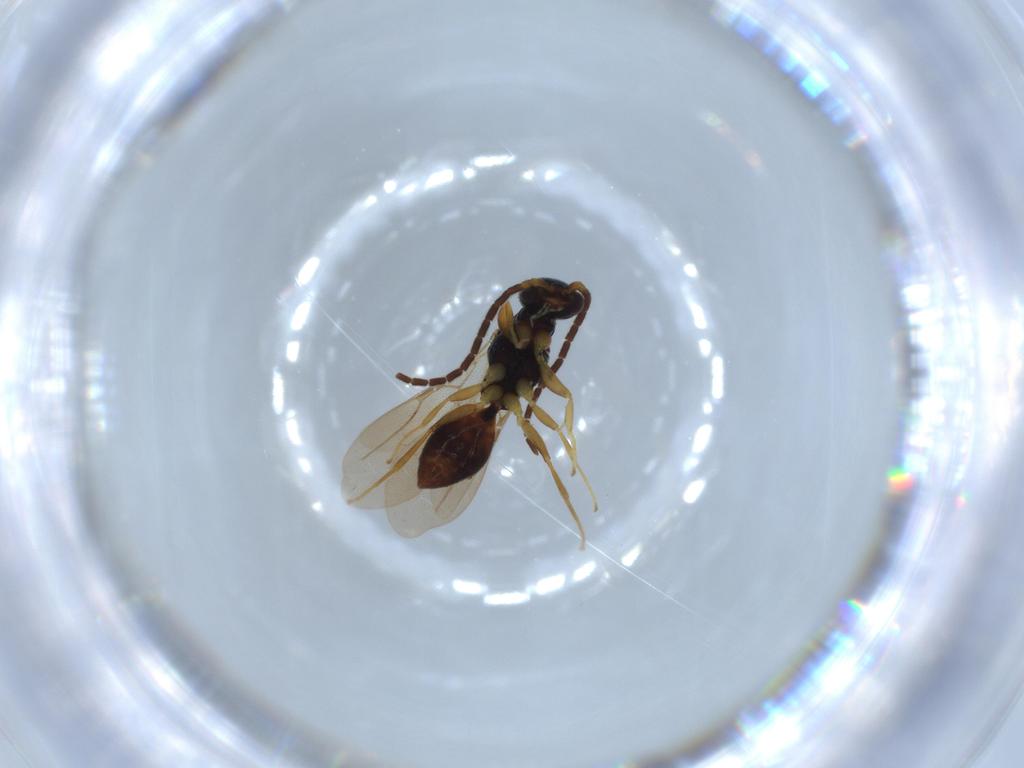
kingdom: Animalia
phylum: Arthropoda
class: Insecta
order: Hymenoptera
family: Bethylidae
